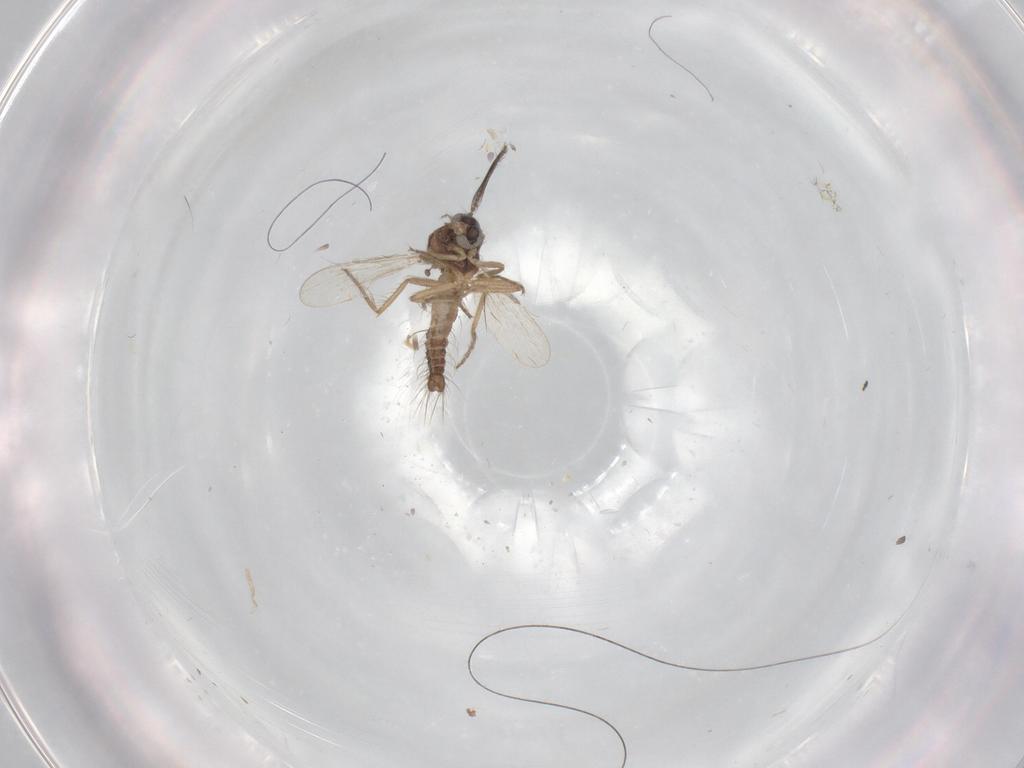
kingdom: Animalia
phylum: Arthropoda
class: Insecta
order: Diptera
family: Ceratopogonidae
